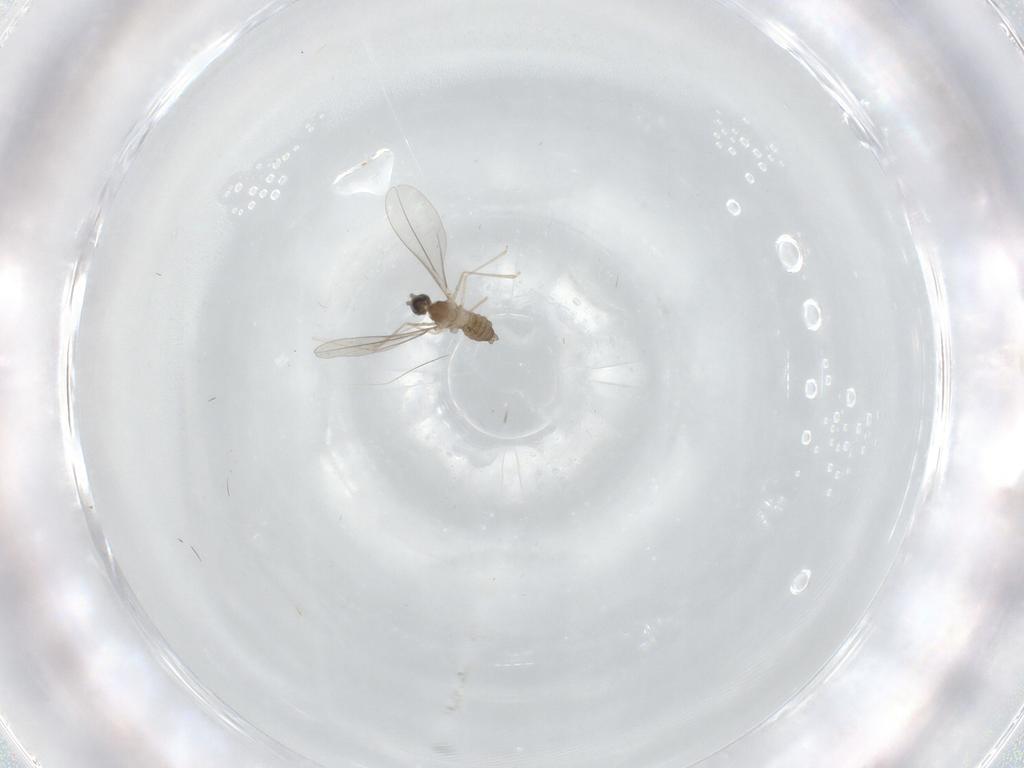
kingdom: Animalia
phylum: Arthropoda
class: Insecta
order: Diptera
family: Cecidomyiidae
